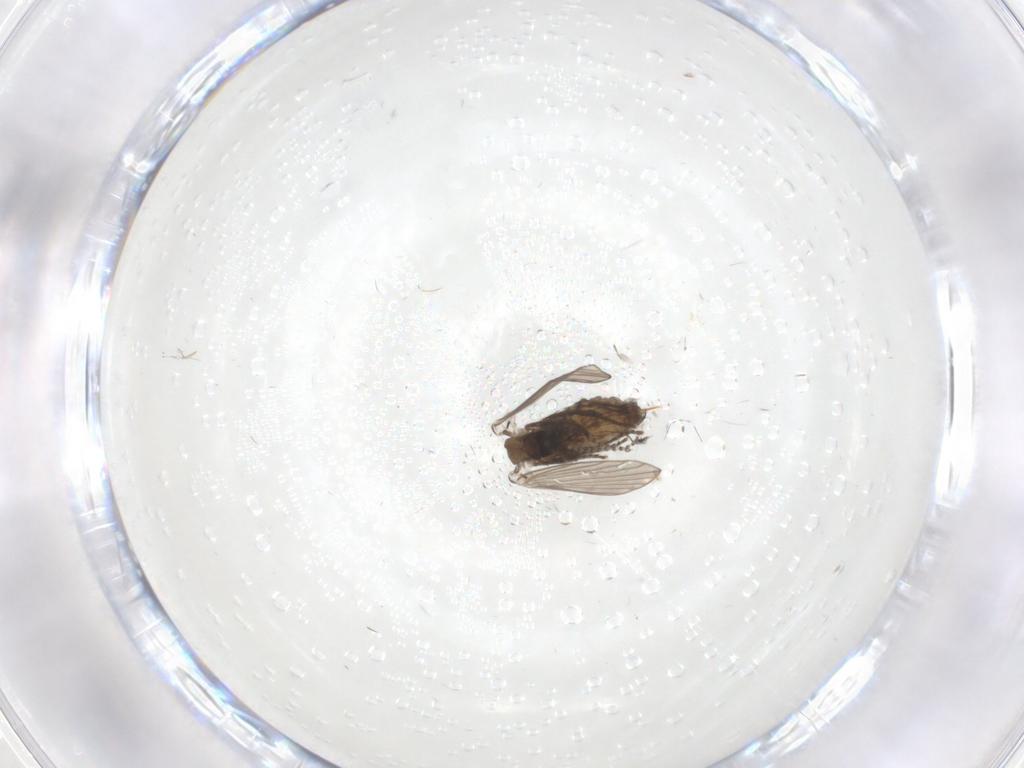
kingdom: Animalia
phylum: Arthropoda
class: Insecta
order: Diptera
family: Psychodidae
